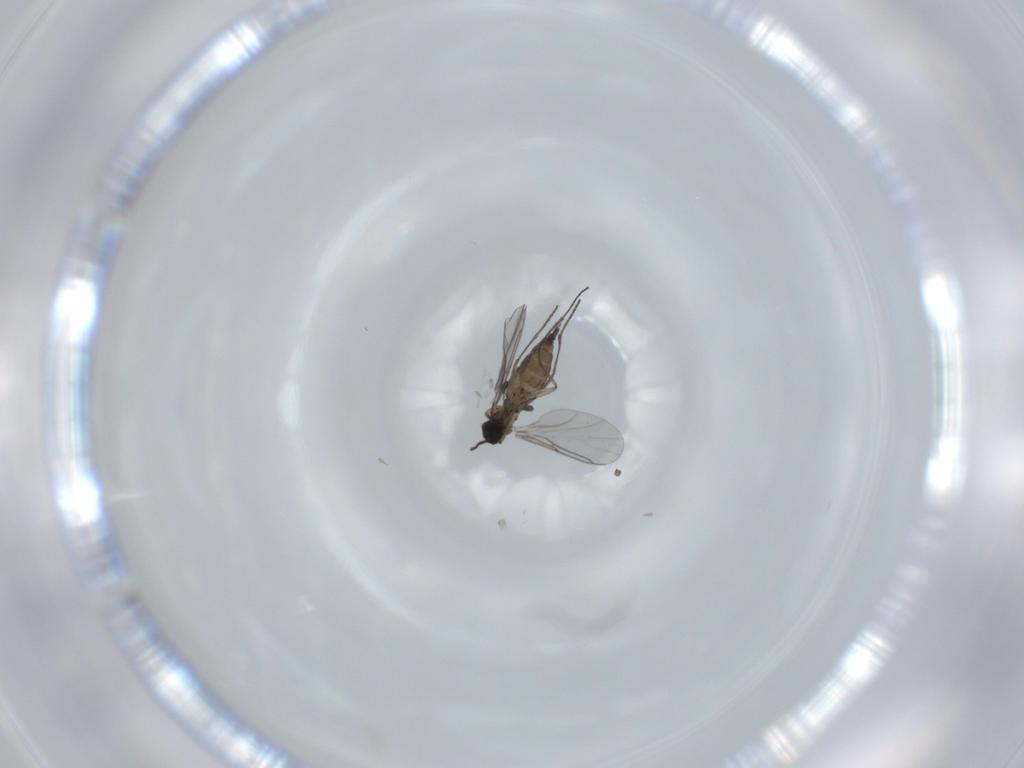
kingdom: Animalia
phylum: Arthropoda
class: Insecta
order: Diptera
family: Sciaridae
